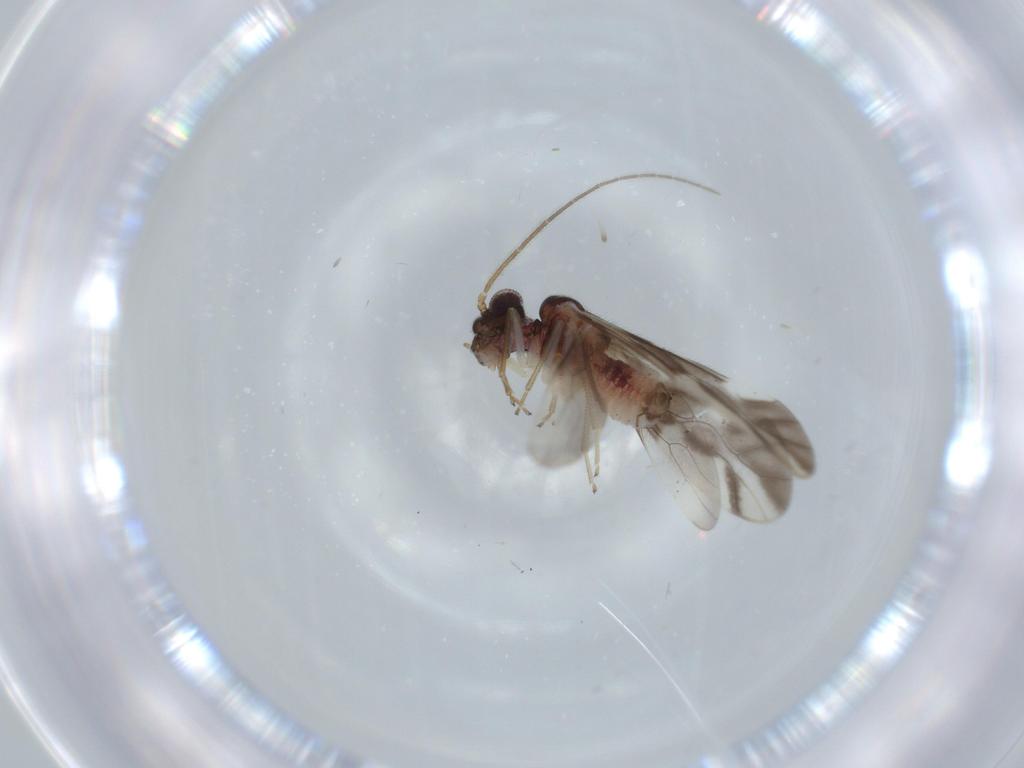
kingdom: Animalia
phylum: Arthropoda
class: Insecta
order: Psocodea
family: Caeciliusidae
